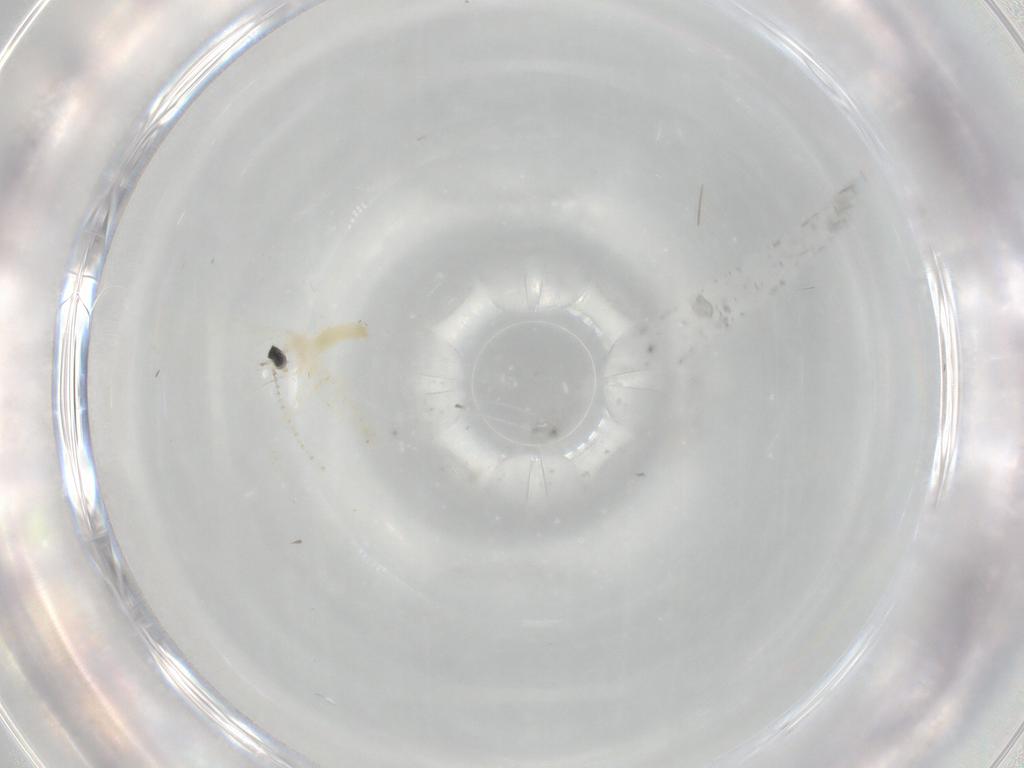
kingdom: Animalia
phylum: Arthropoda
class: Insecta
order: Diptera
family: Cecidomyiidae
